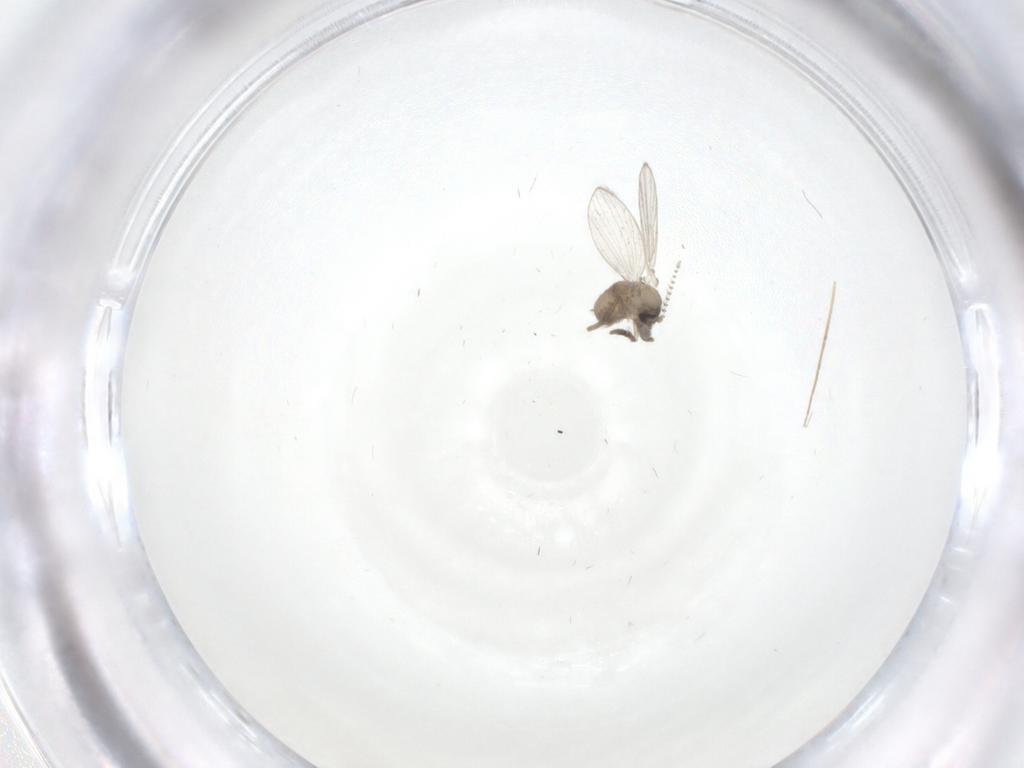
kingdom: Animalia
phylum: Arthropoda
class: Insecta
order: Diptera
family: Psychodidae
